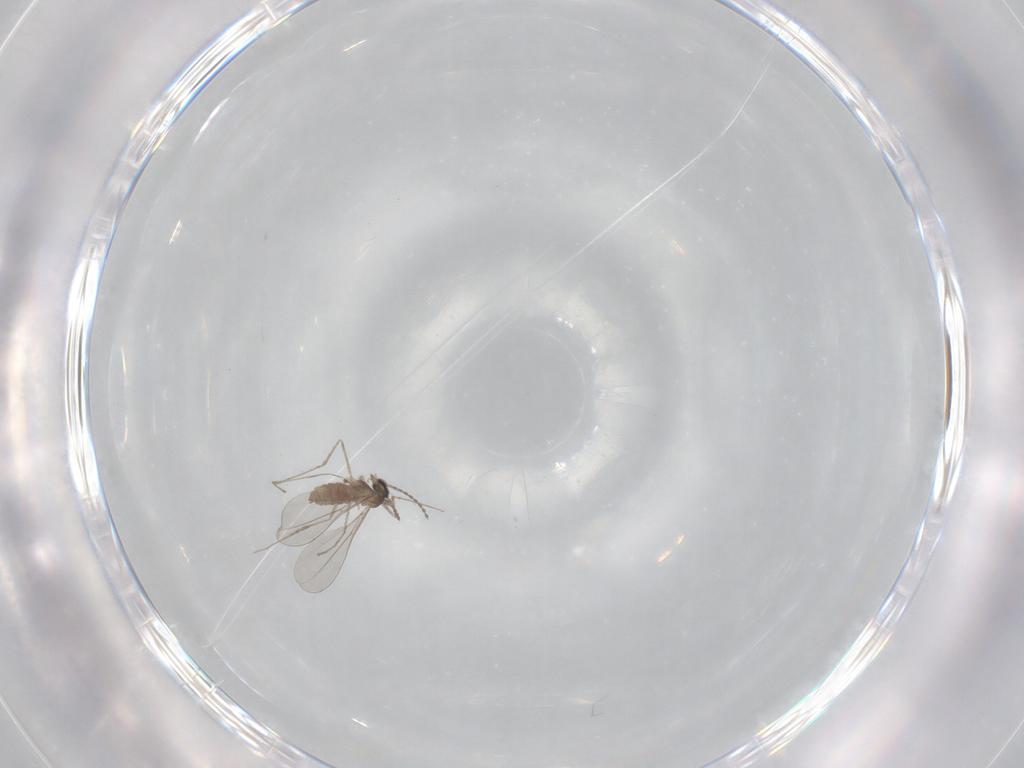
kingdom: Animalia
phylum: Arthropoda
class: Insecta
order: Diptera
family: Cecidomyiidae
